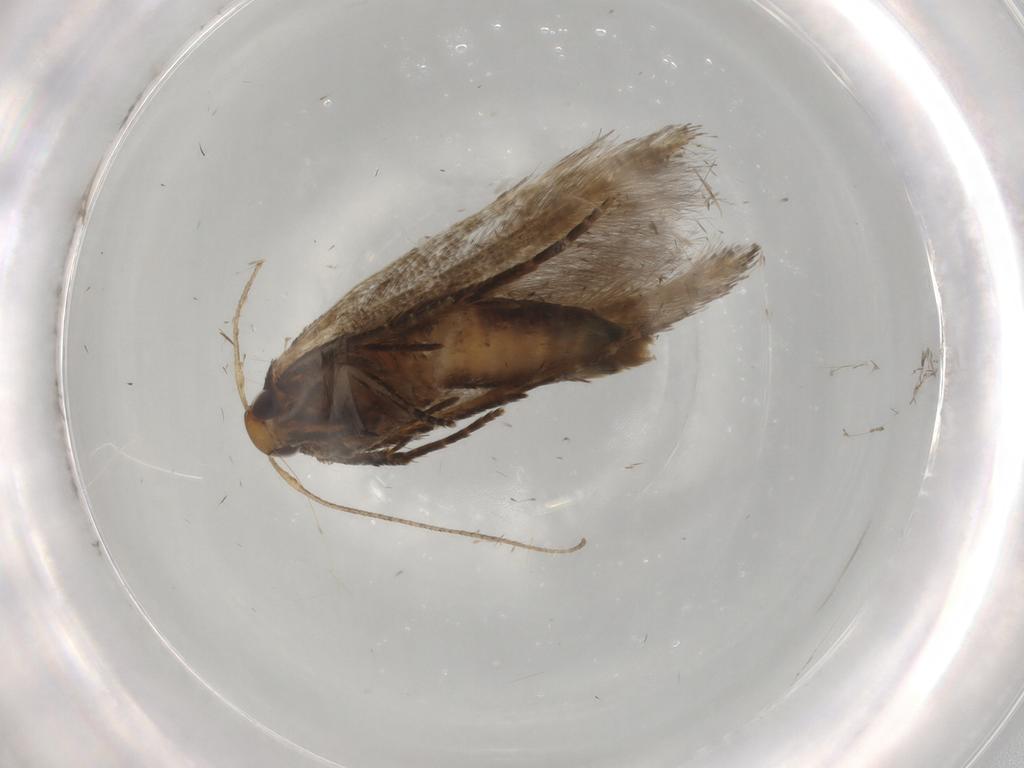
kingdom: Animalia
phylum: Arthropoda
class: Insecta
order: Lepidoptera
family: Cosmopterigidae
